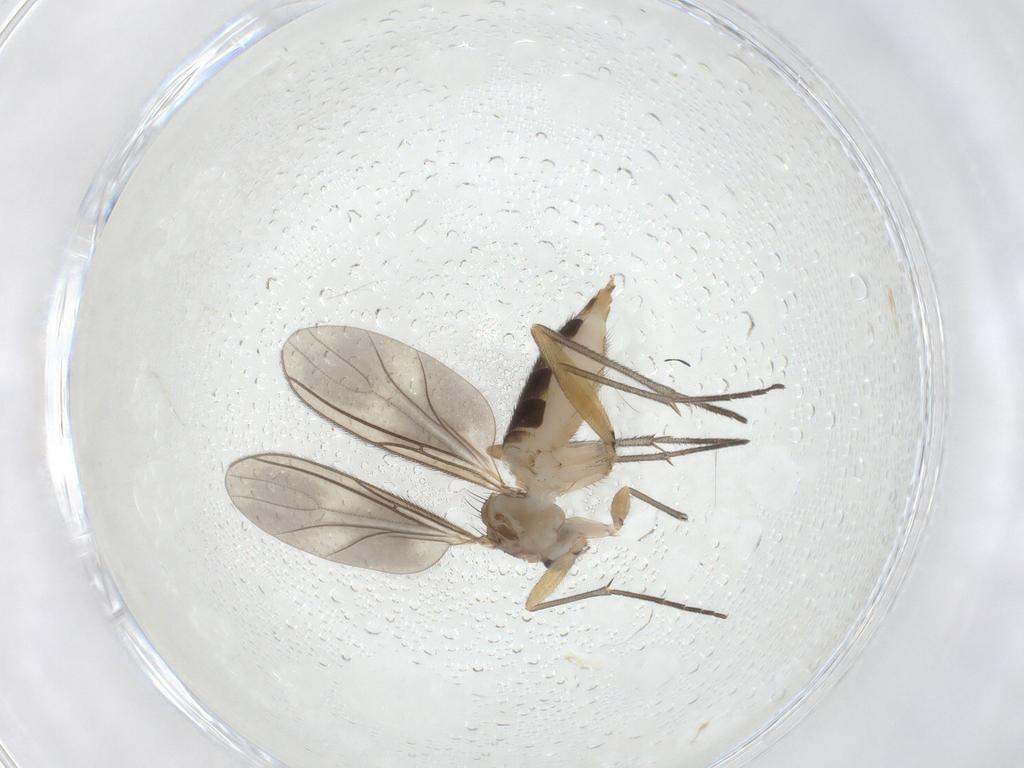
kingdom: Animalia
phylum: Arthropoda
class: Insecta
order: Diptera
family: Sciaridae
